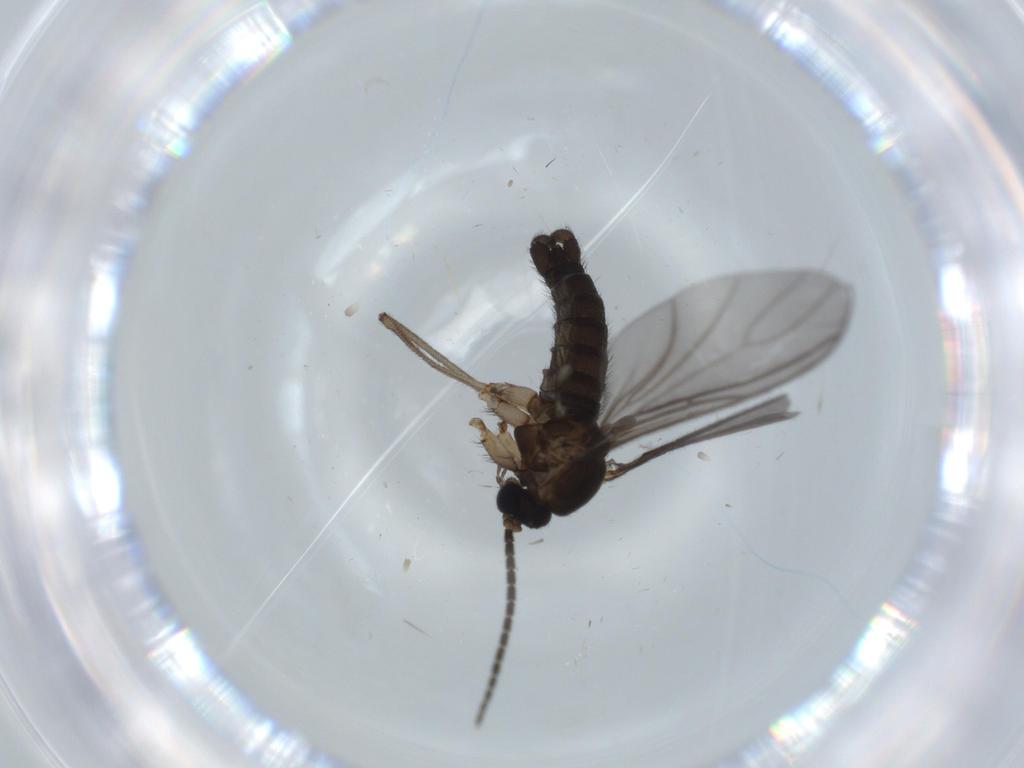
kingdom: Animalia
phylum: Arthropoda
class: Insecta
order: Diptera
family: Sciaridae
